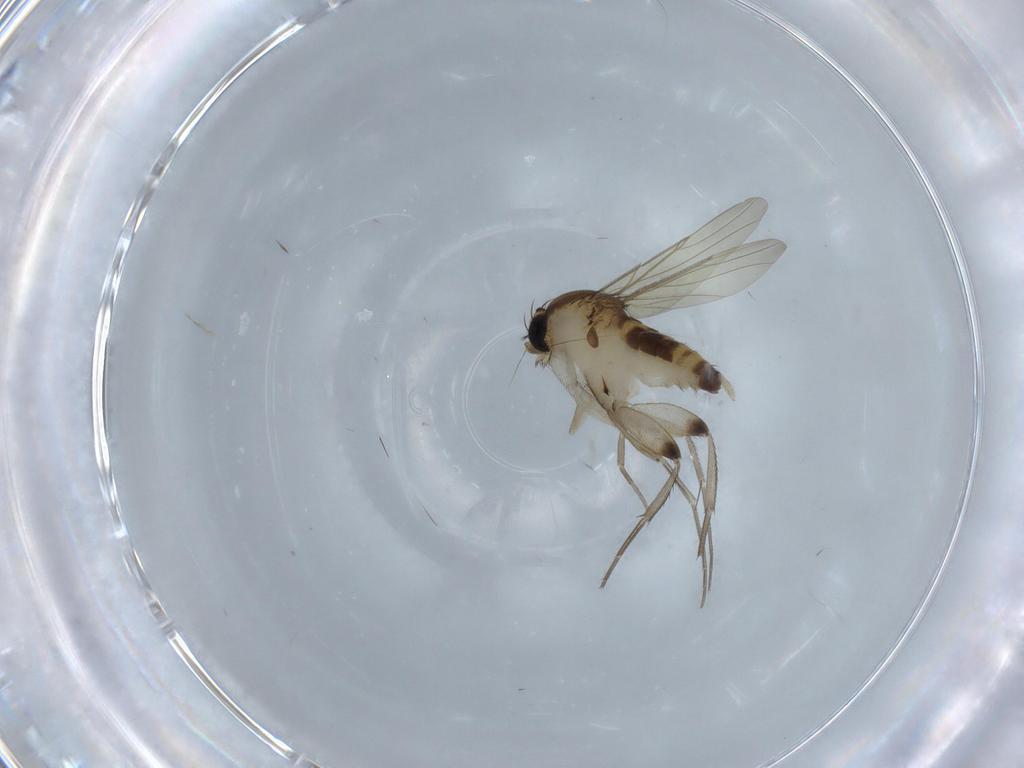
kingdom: Animalia
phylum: Arthropoda
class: Insecta
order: Diptera
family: Phoridae
